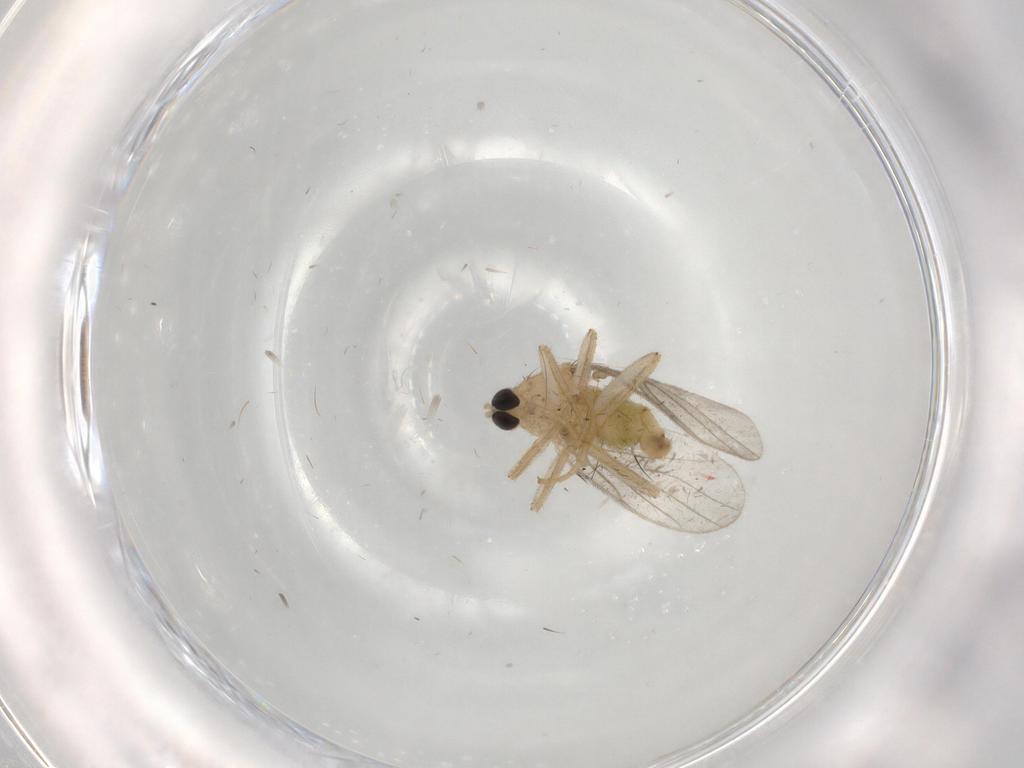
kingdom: Animalia
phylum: Arthropoda
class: Insecta
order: Diptera
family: Hybotidae
